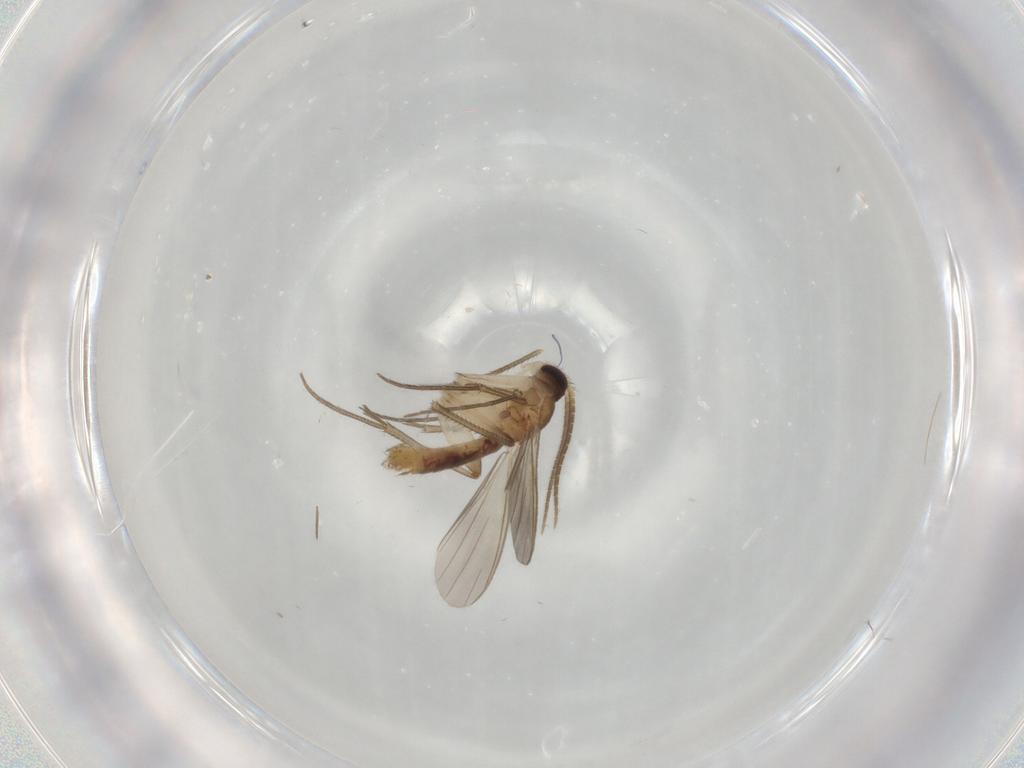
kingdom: Animalia
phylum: Arthropoda
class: Insecta
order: Diptera
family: Mycetophilidae
